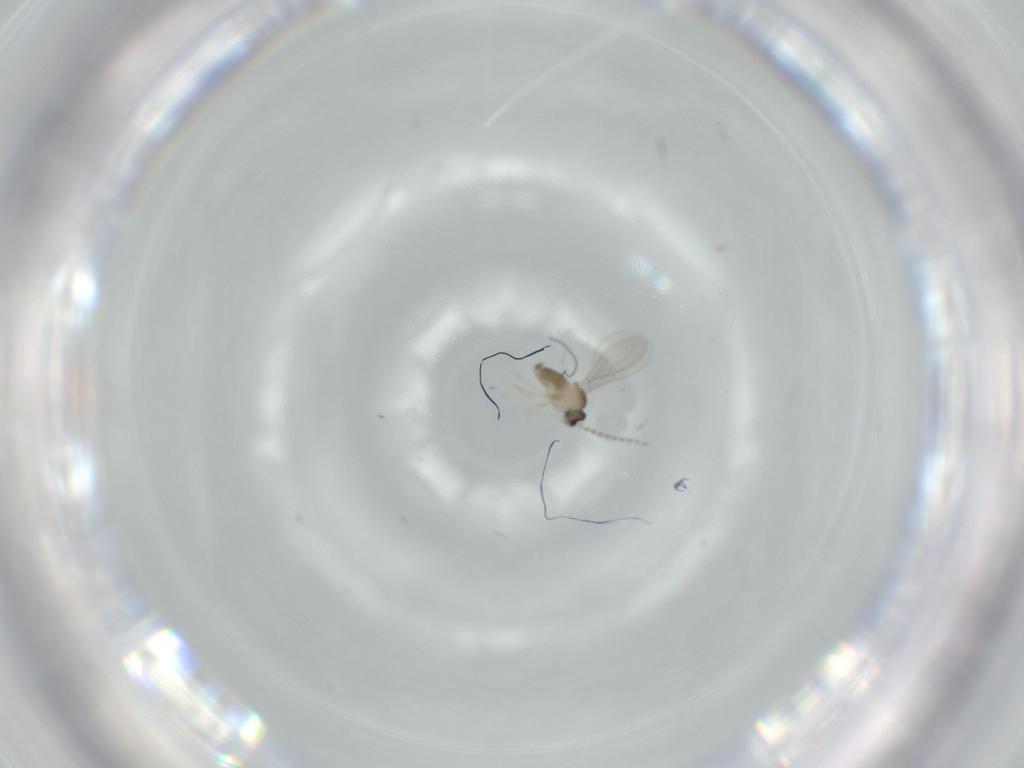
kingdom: Animalia
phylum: Arthropoda
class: Insecta
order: Diptera
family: Cecidomyiidae
